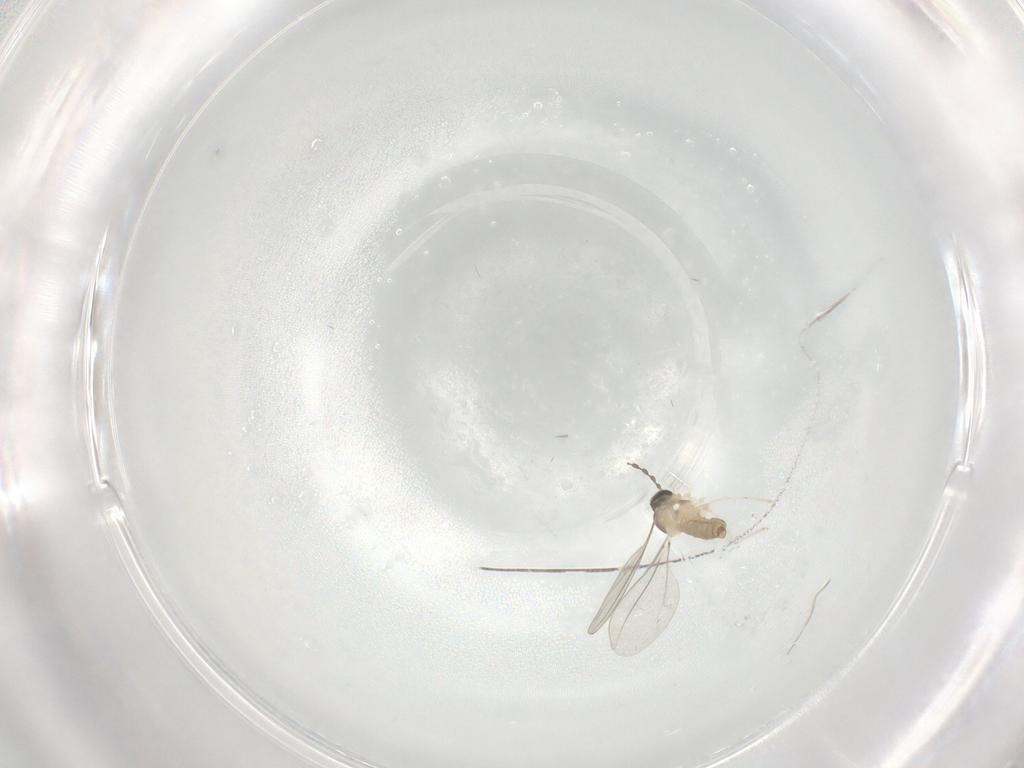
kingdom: Animalia
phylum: Arthropoda
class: Insecta
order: Diptera
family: Cecidomyiidae
